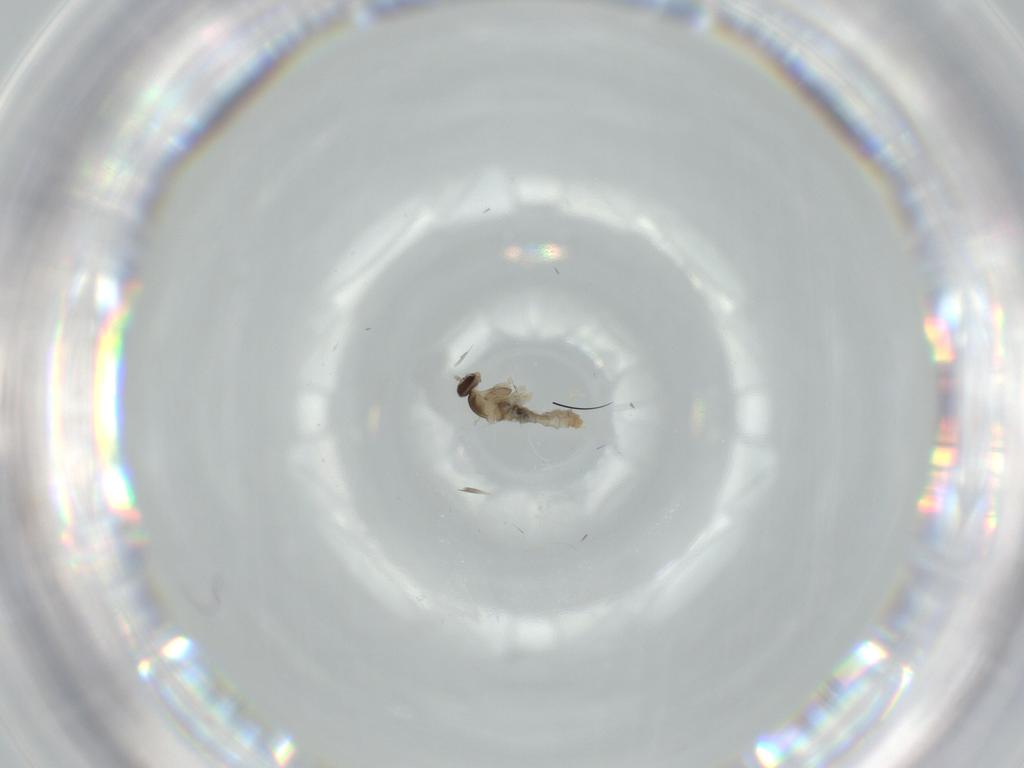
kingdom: Animalia
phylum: Arthropoda
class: Insecta
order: Diptera
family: Cecidomyiidae
